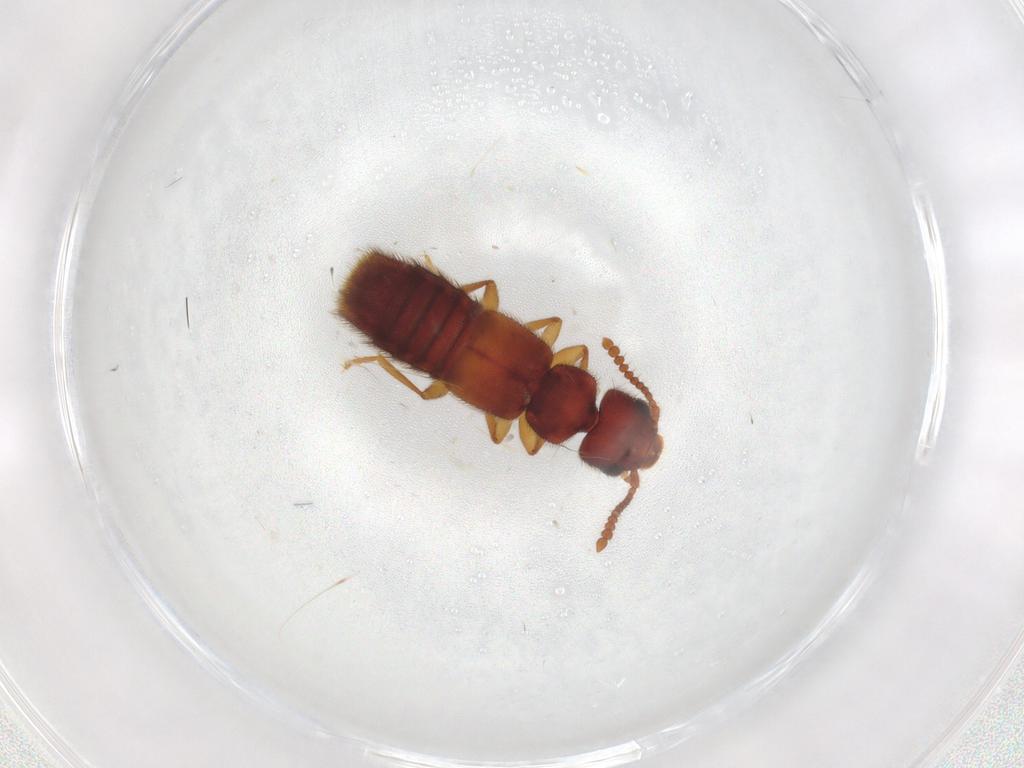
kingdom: Animalia
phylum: Arthropoda
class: Insecta
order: Coleoptera
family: Staphylinidae
